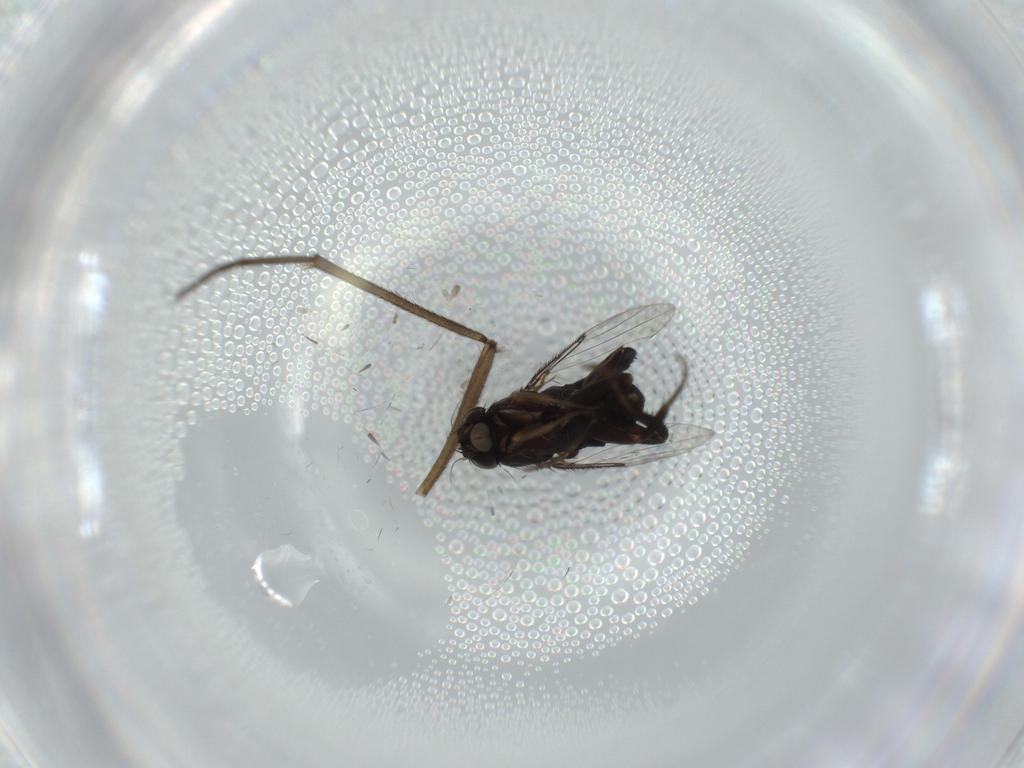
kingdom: Animalia
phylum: Arthropoda
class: Insecta
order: Diptera
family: Phoridae
